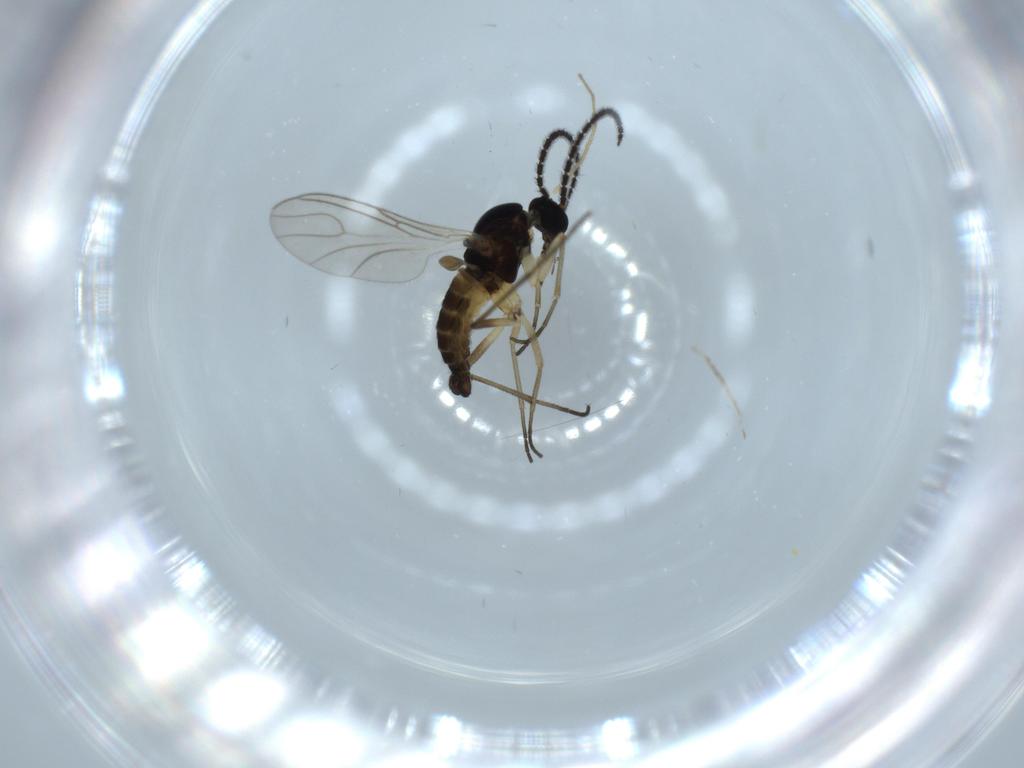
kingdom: Animalia
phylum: Arthropoda
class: Insecta
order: Diptera
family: Sciaridae
